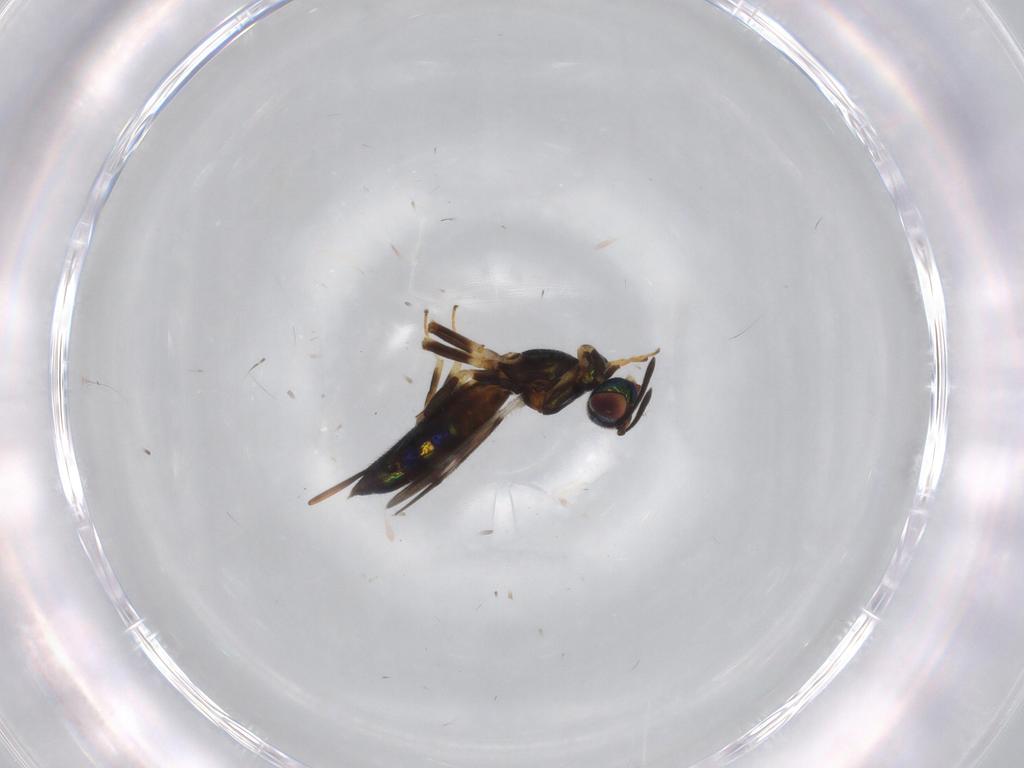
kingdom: Animalia
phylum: Arthropoda
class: Insecta
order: Hymenoptera
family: Eupelmidae
